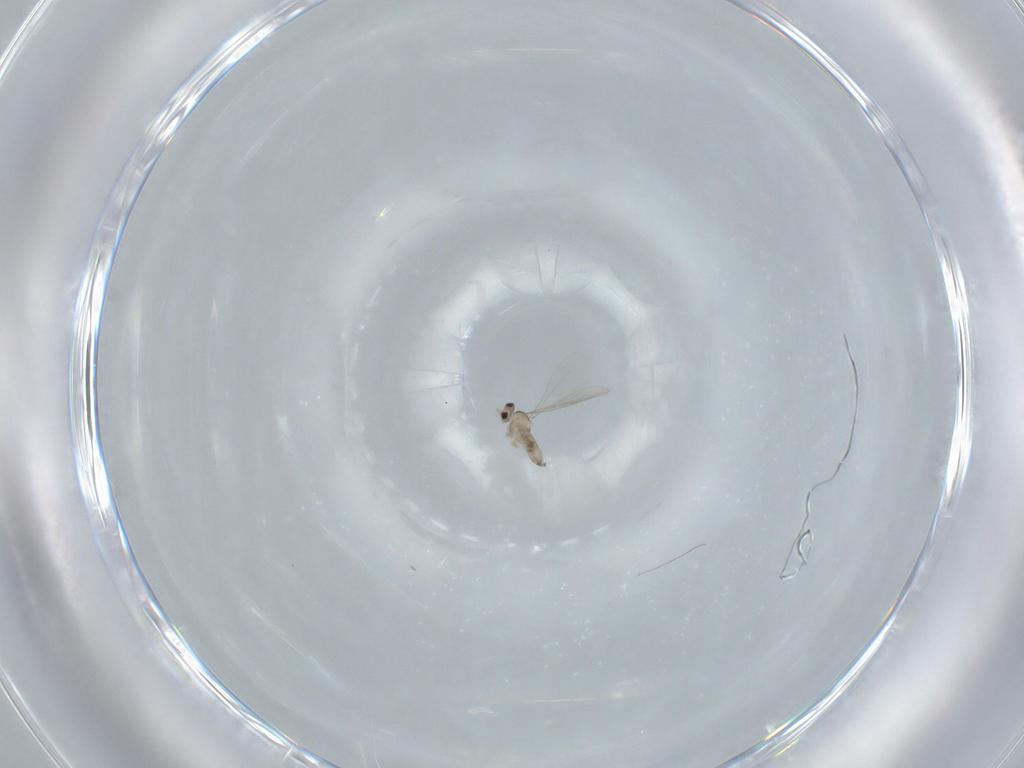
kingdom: Animalia
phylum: Arthropoda
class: Insecta
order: Diptera
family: Cecidomyiidae
